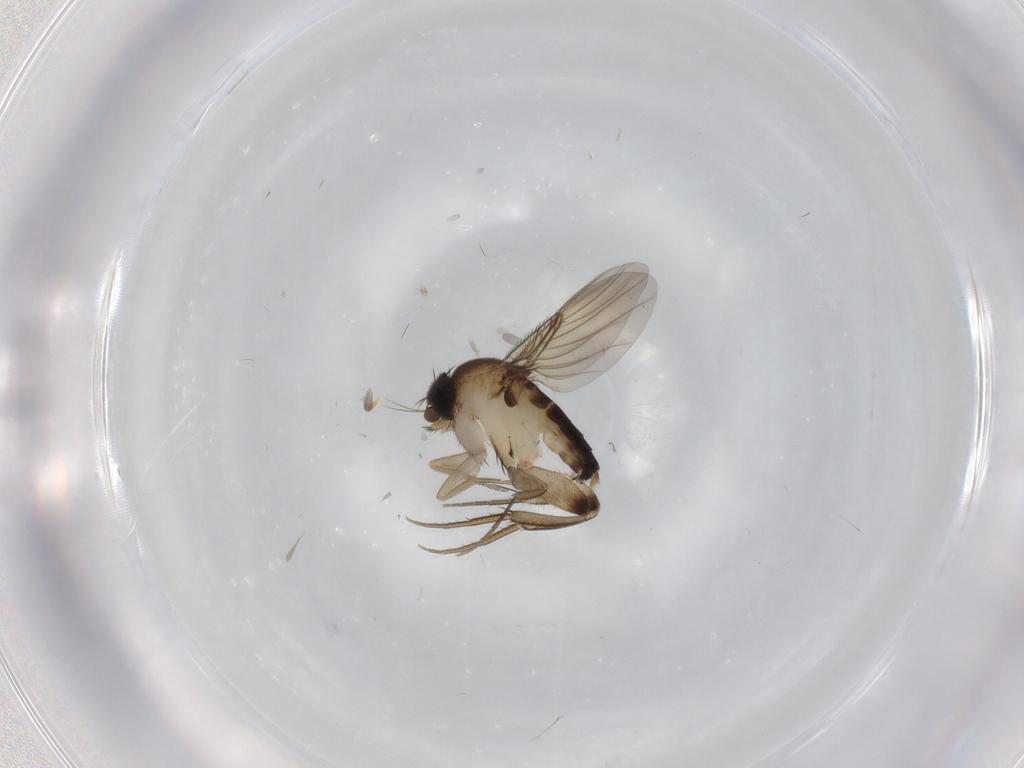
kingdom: Animalia
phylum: Arthropoda
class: Insecta
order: Diptera
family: Phoridae
